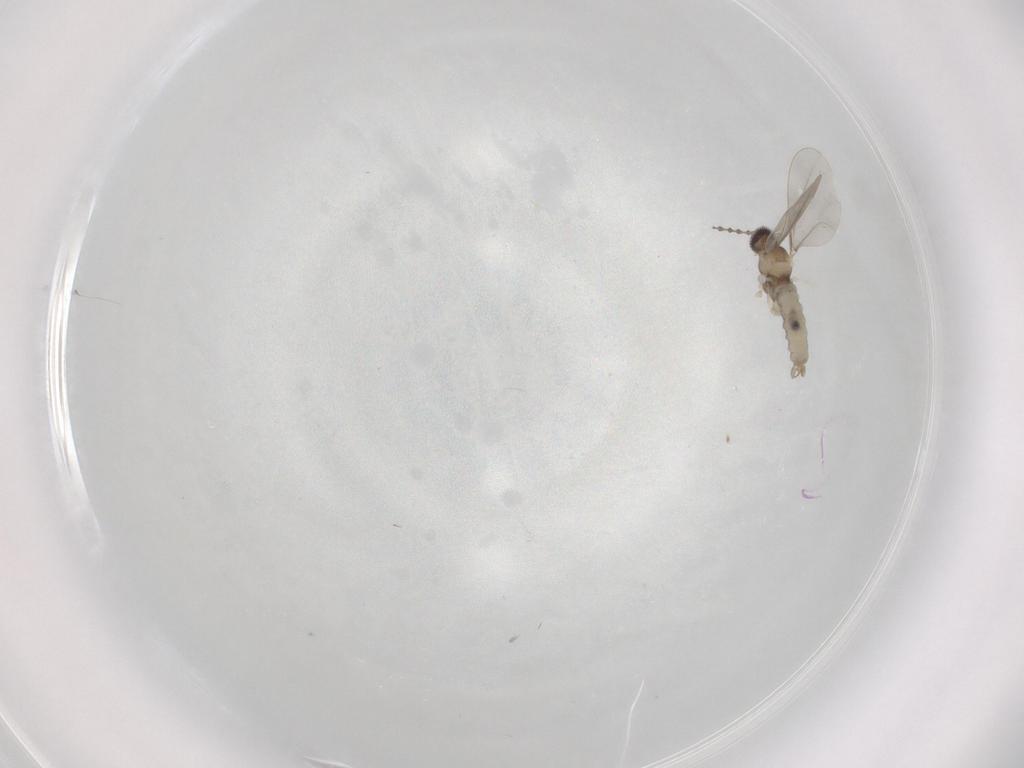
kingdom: Animalia
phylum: Arthropoda
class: Insecta
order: Diptera
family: Cecidomyiidae
